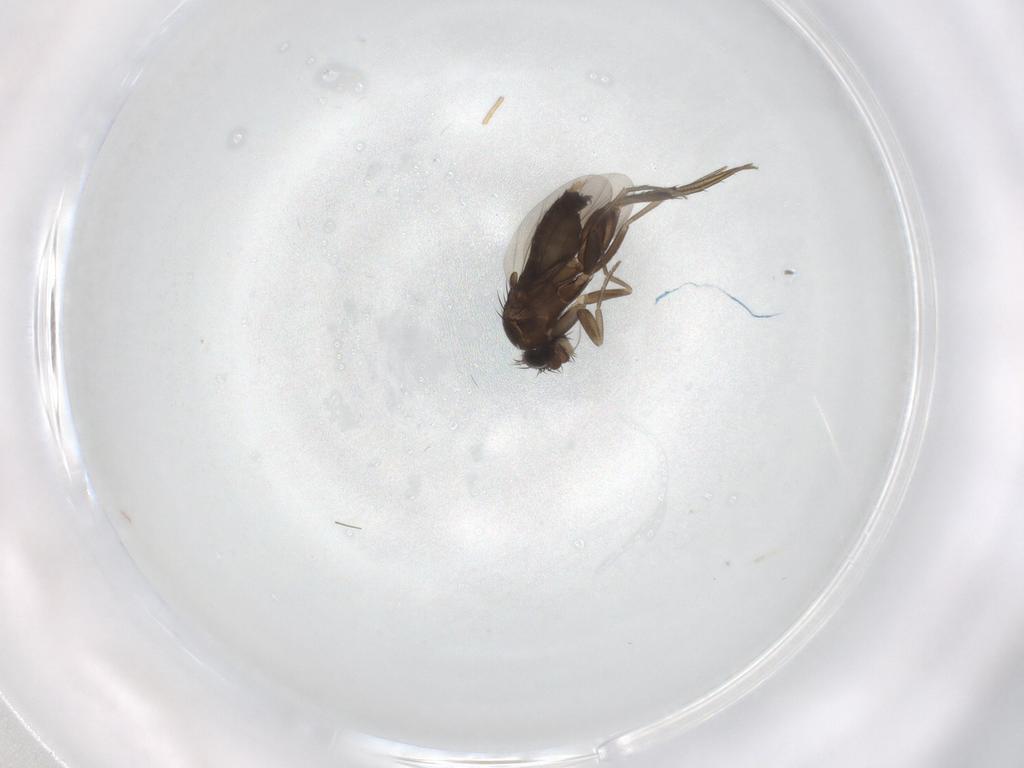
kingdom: Animalia
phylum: Arthropoda
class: Insecta
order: Diptera
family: Phoridae
